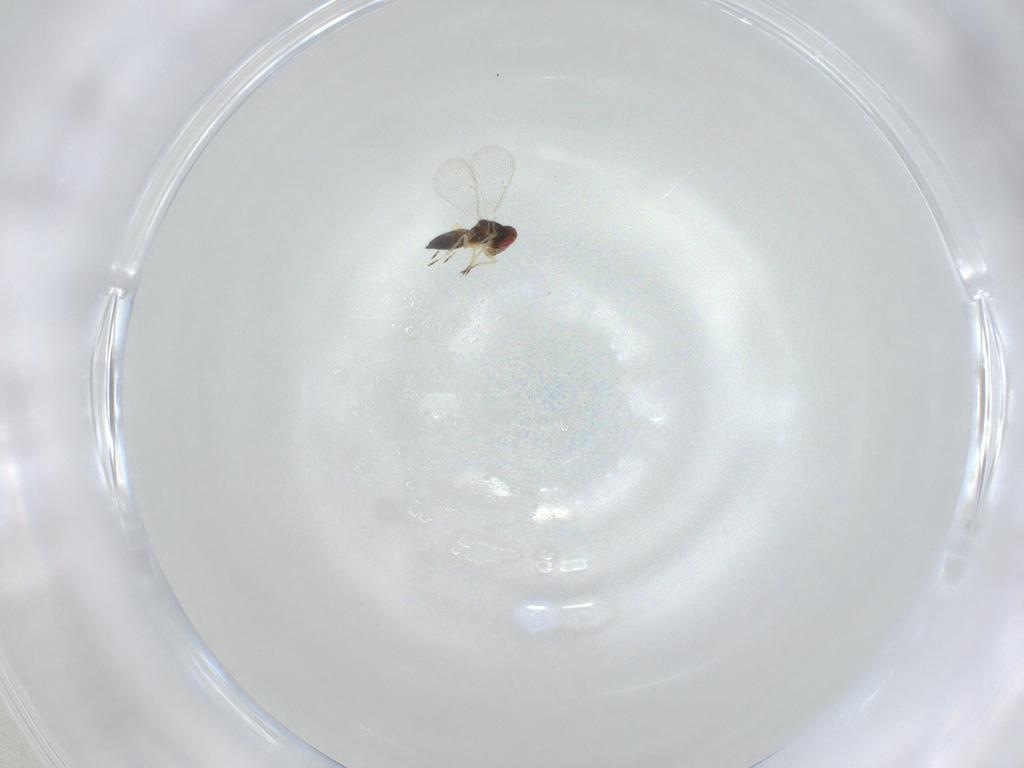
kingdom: Animalia
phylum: Arthropoda
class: Insecta
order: Hymenoptera
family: Eulophidae
